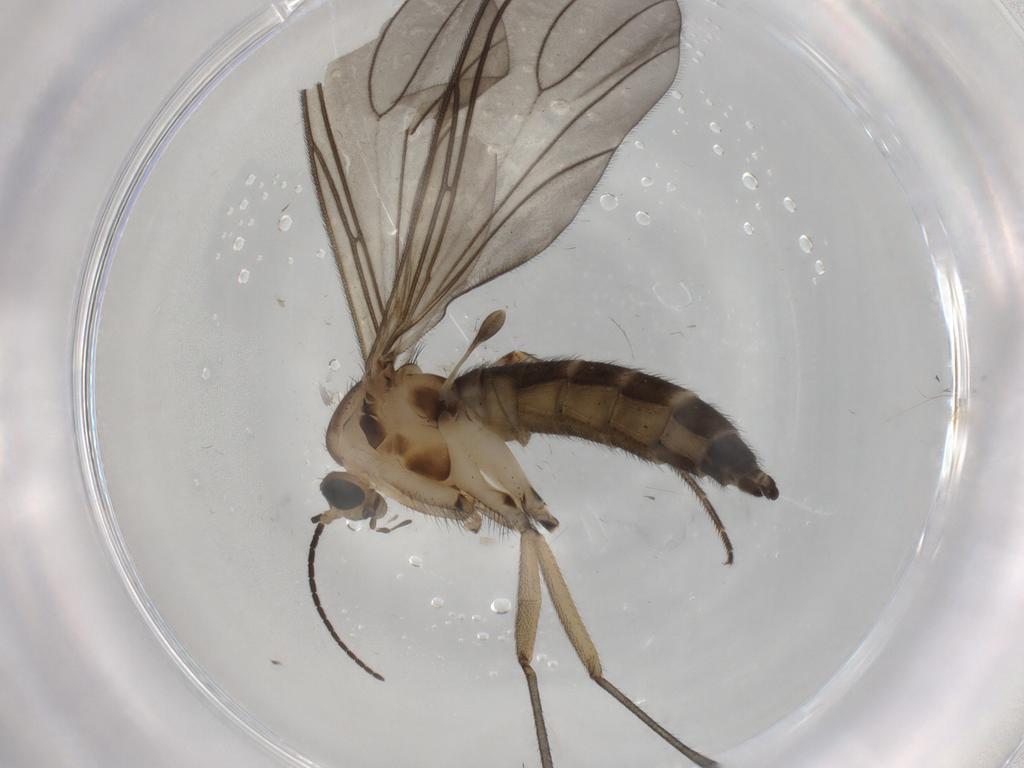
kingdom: Animalia
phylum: Arthropoda
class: Insecta
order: Diptera
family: Sciaridae
